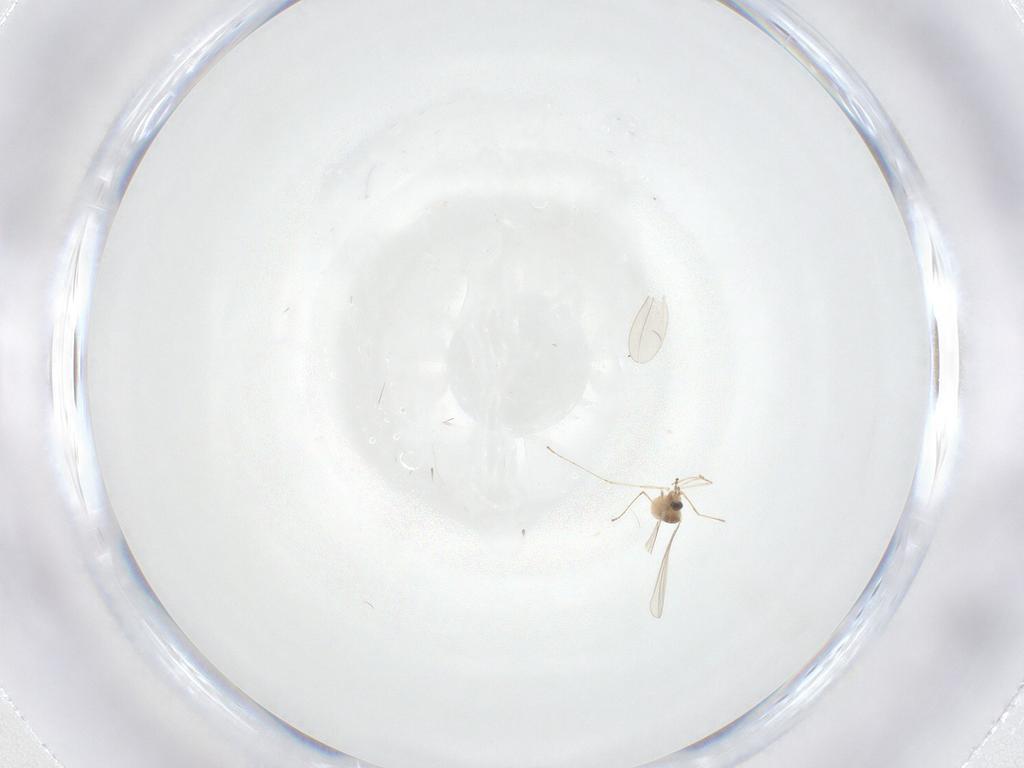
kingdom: Animalia
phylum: Arthropoda
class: Insecta
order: Diptera
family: Cecidomyiidae
